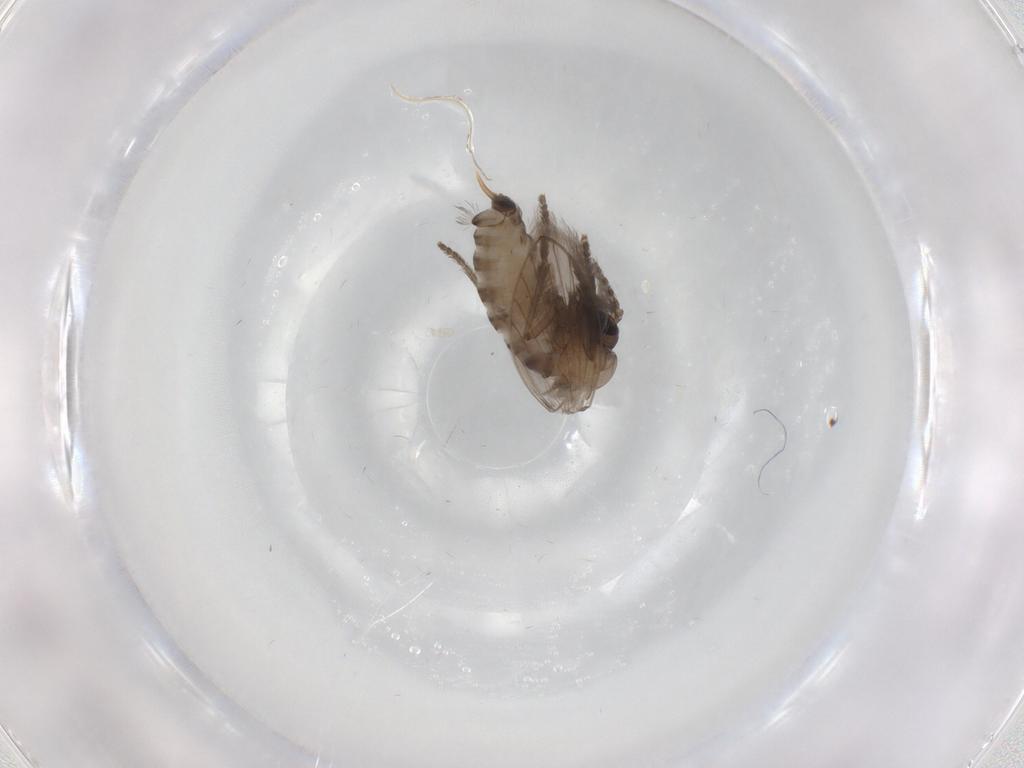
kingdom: Animalia
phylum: Arthropoda
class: Insecta
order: Diptera
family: Psychodidae
